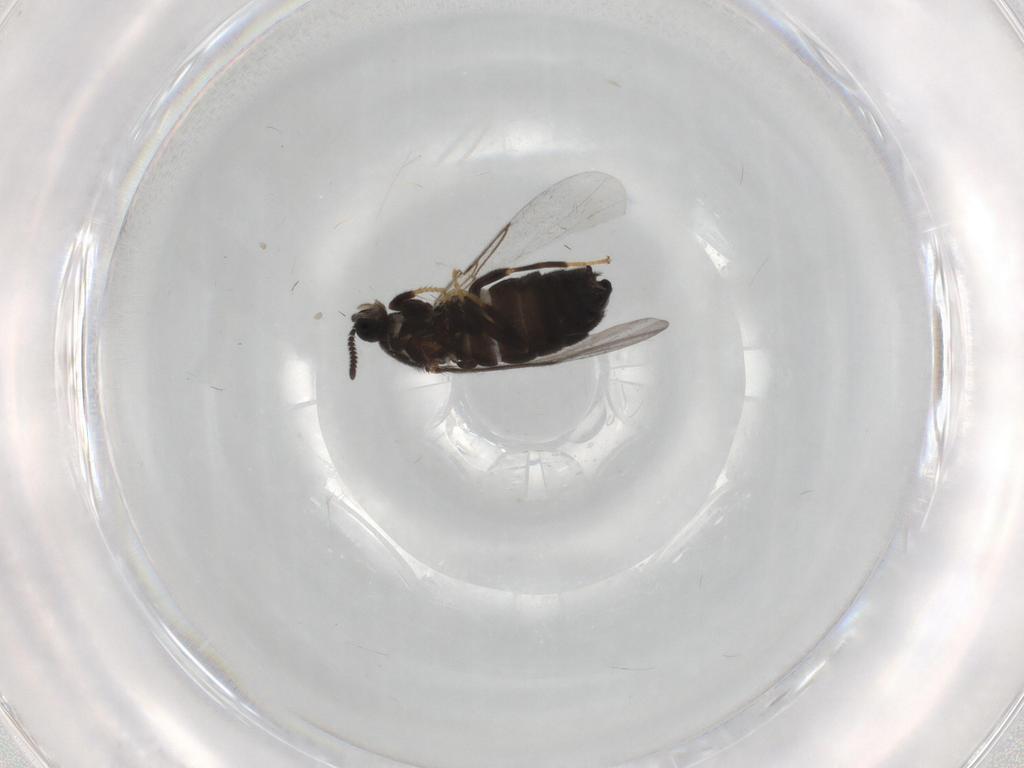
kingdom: Animalia
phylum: Arthropoda
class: Insecta
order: Diptera
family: Scatopsidae
